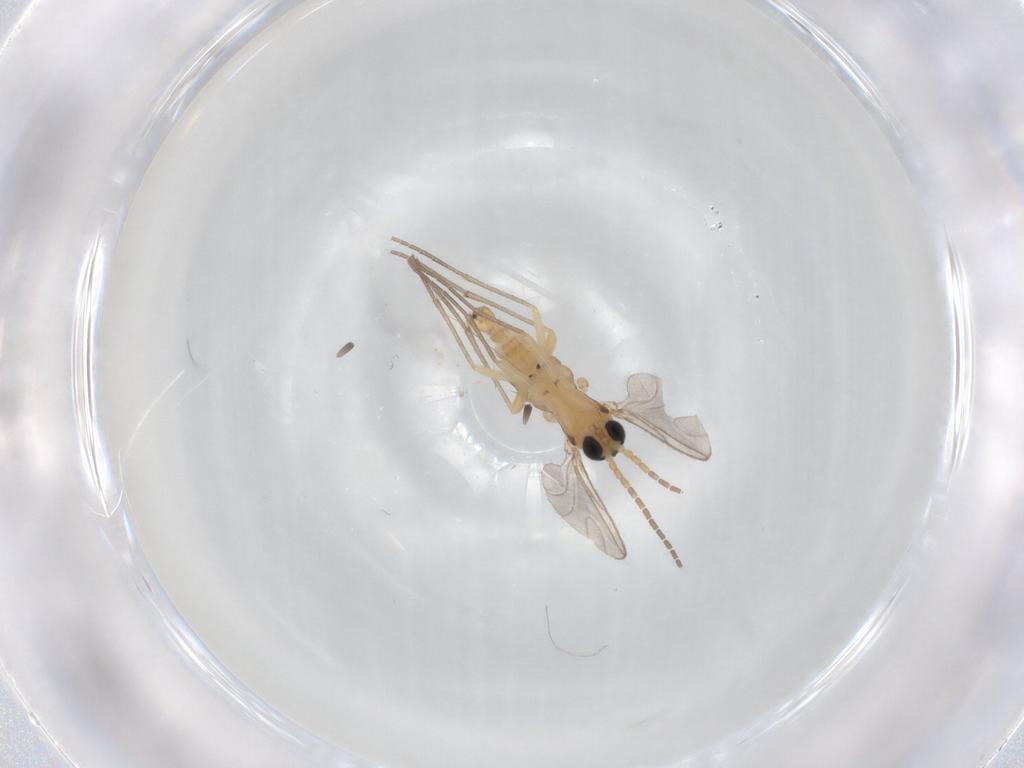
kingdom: Animalia
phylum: Arthropoda
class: Insecta
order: Diptera
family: Sciaridae
